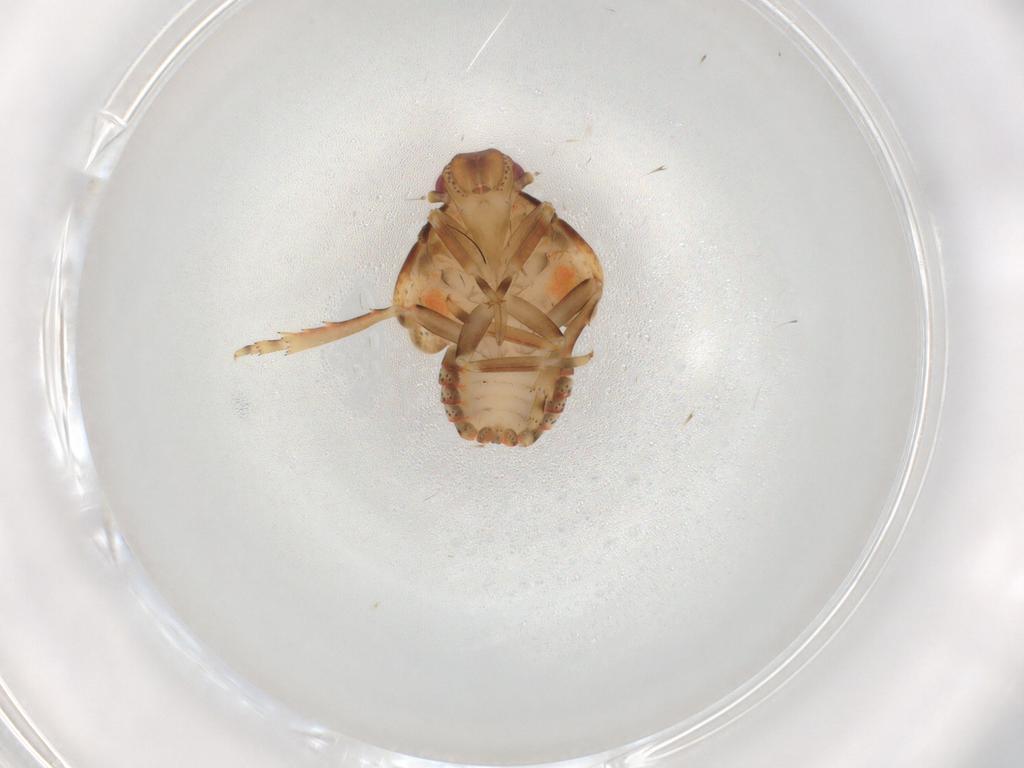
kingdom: Animalia
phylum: Arthropoda
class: Insecta
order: Hemiptera
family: Flatidae
